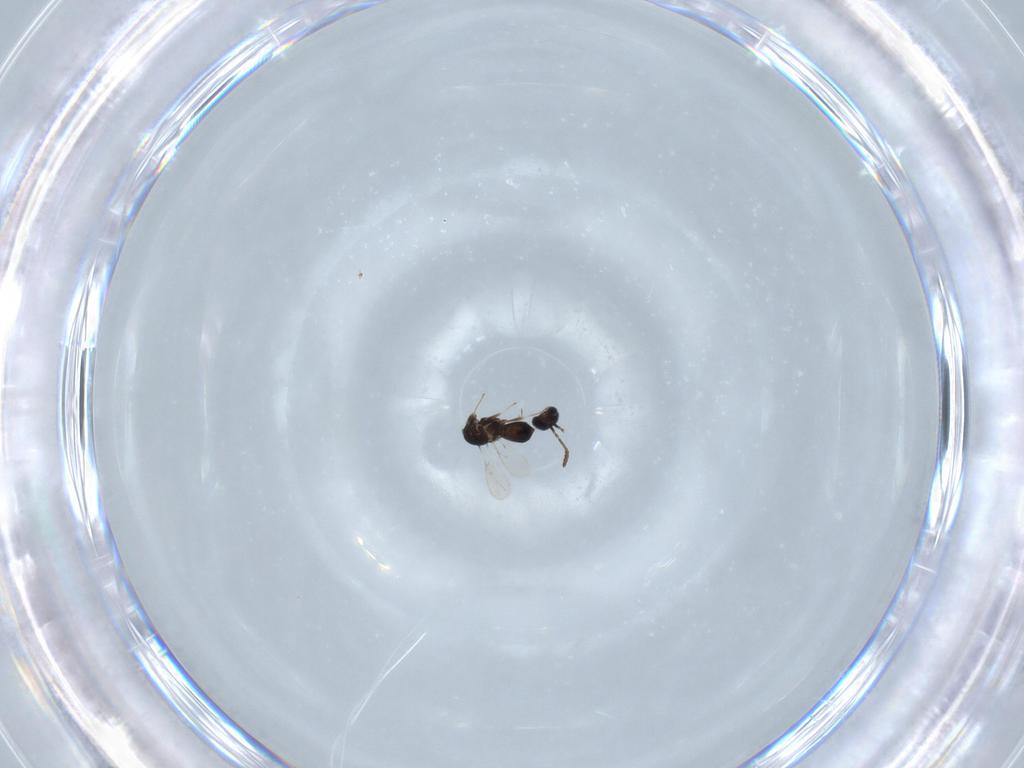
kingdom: Animalia
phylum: Arthropoda
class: Insecta
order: Hymenoptera
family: Scelionidae
